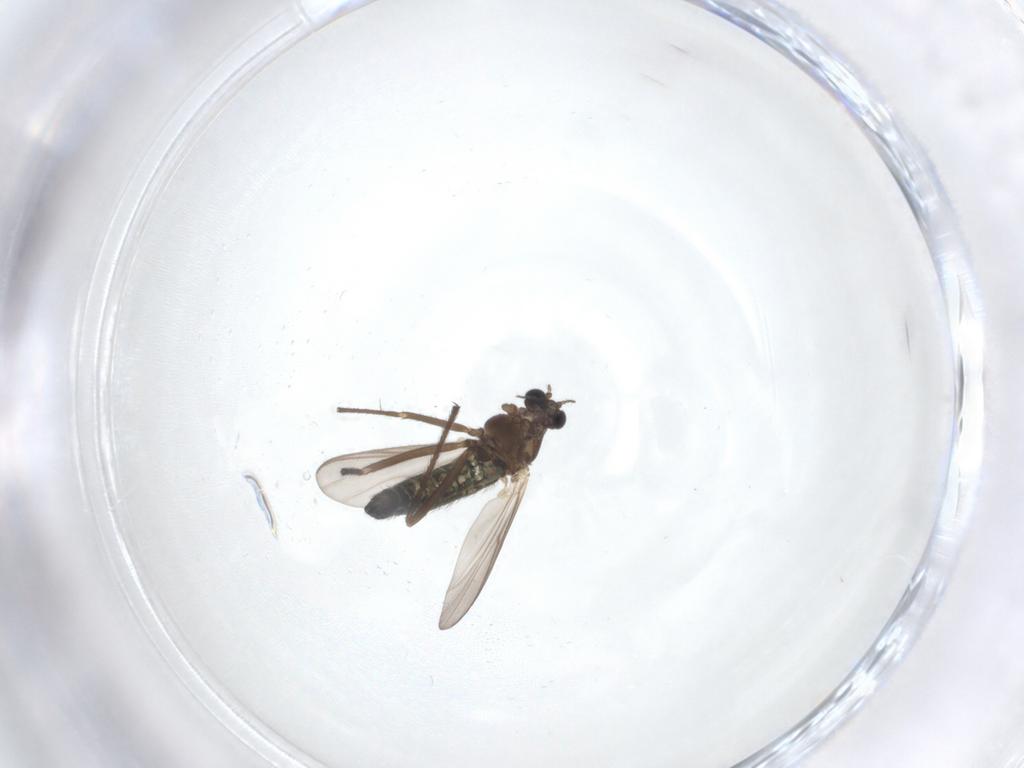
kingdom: Animalia
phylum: Arthropoda
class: Insecta
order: Diptera
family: Chironomidae
